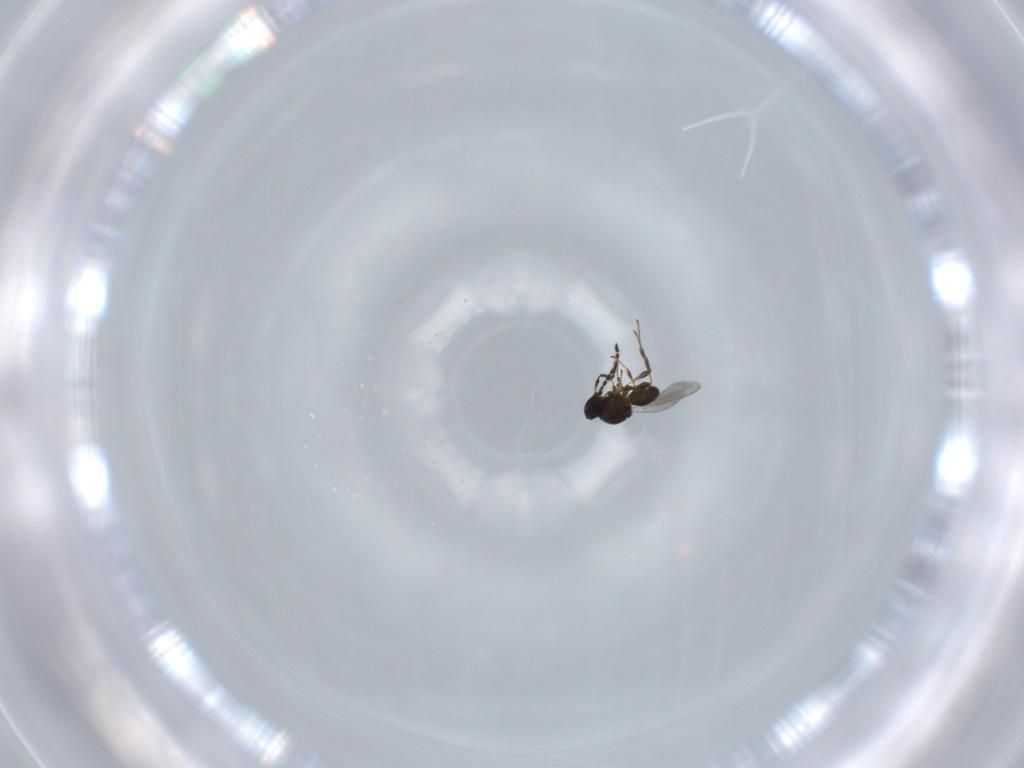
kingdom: Animalia
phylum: Arthropoda
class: Insecta
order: Hymenoptera
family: Platygastridae
